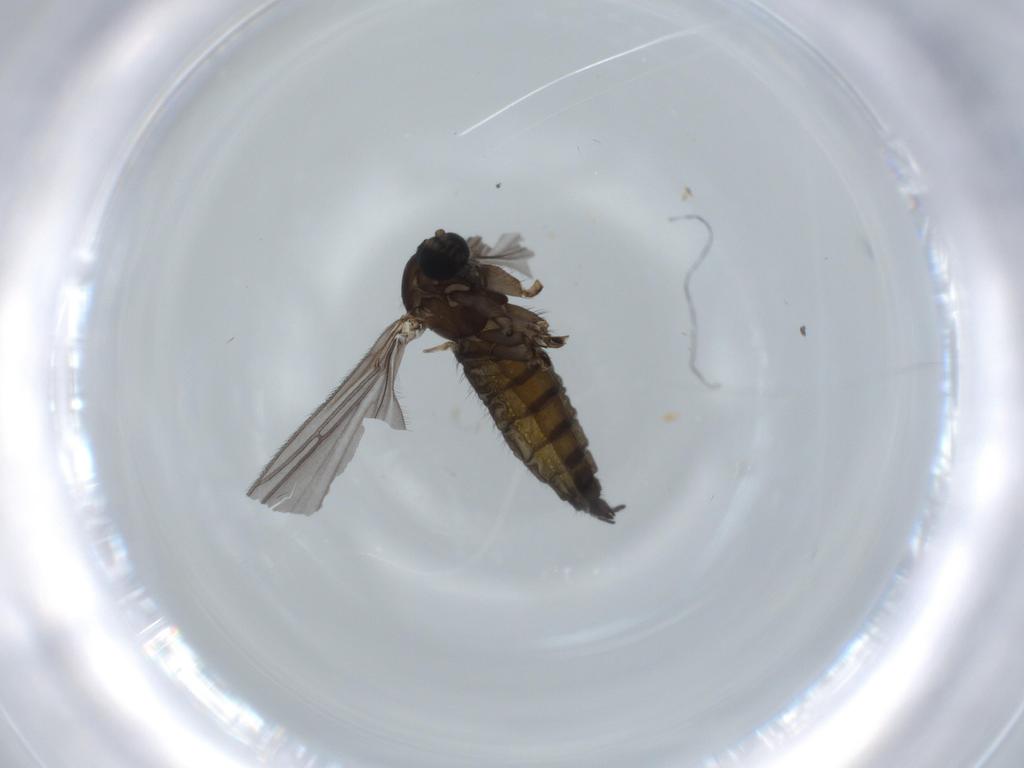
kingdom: Animalia
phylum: Arthropoda
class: Insecta
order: Diptera
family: Sciaridae
